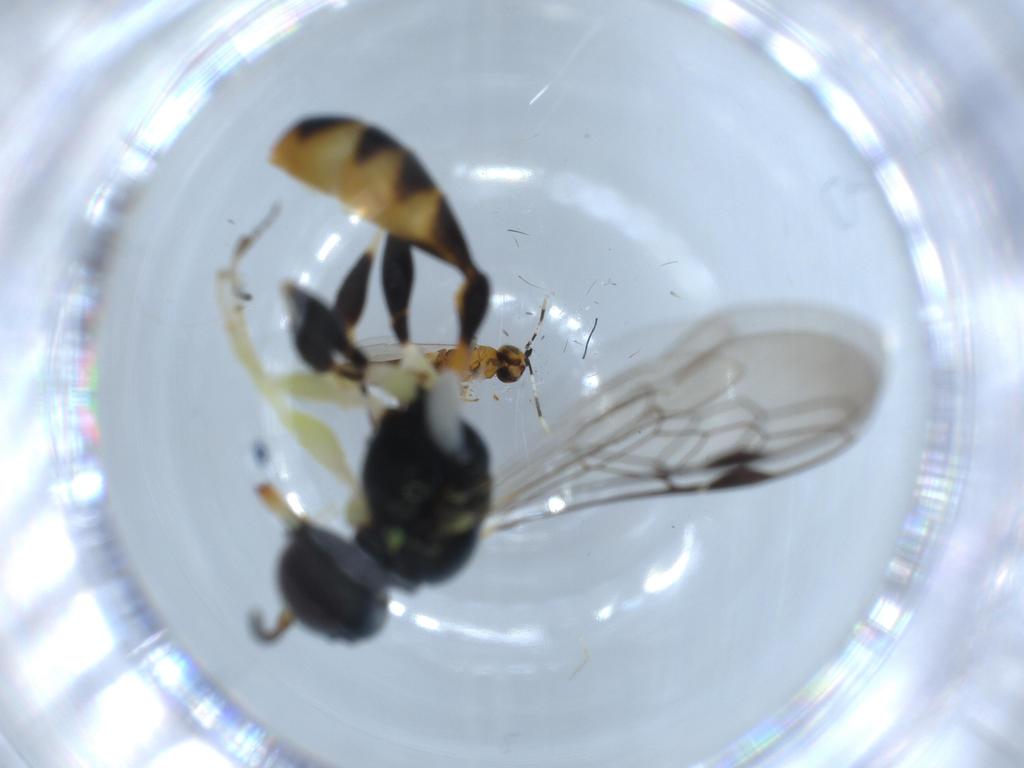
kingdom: Animalia
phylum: Arthropoda
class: Insecta
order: Hymenoptera
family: Crabronidae
